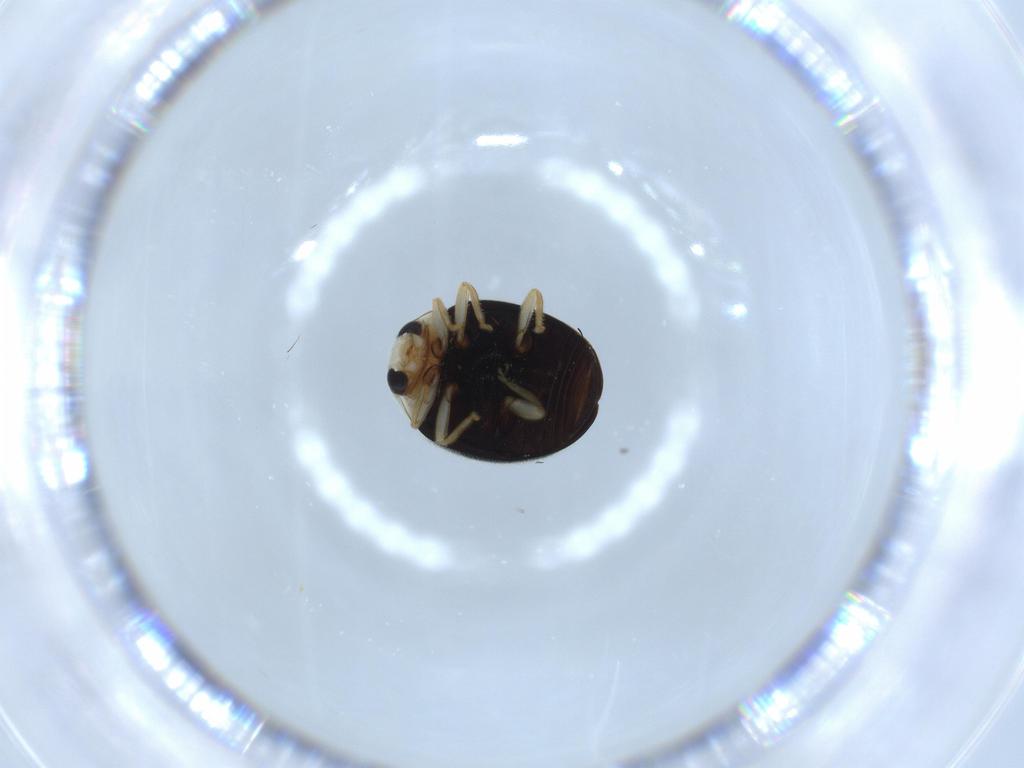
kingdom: Animalia
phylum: Arthropoda
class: Insecta
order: Coleoptera
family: Coccinellidae
